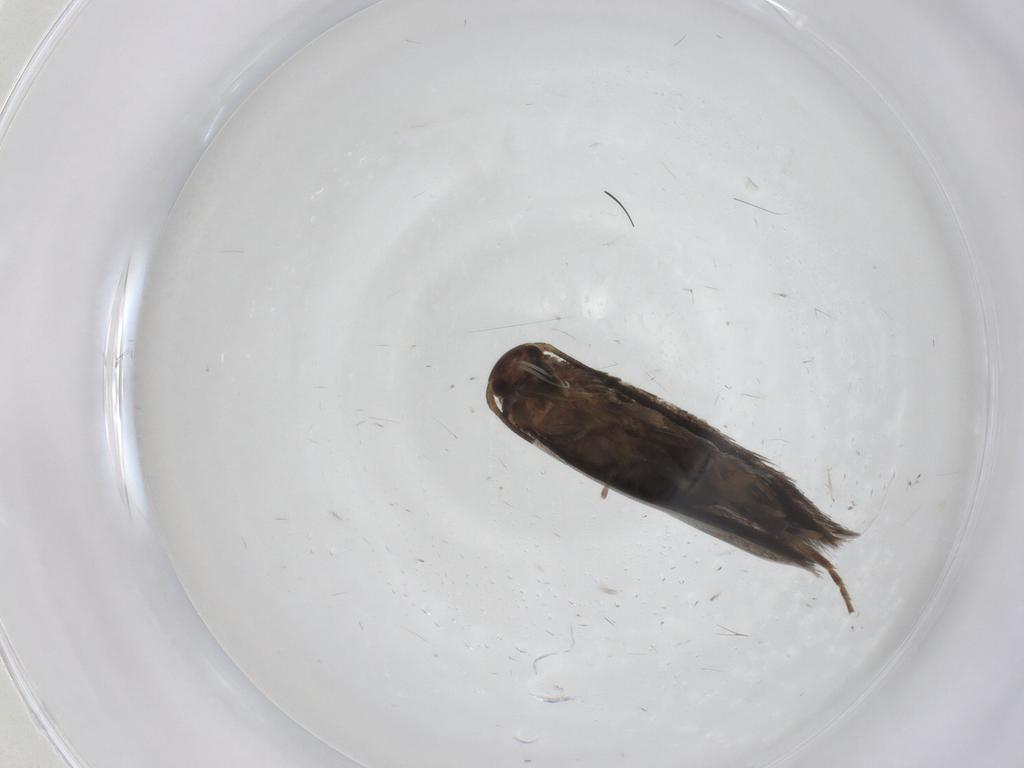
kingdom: Animalia
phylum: Arthropoda
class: Insecta
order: Lepidoptera
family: Elachistidae
